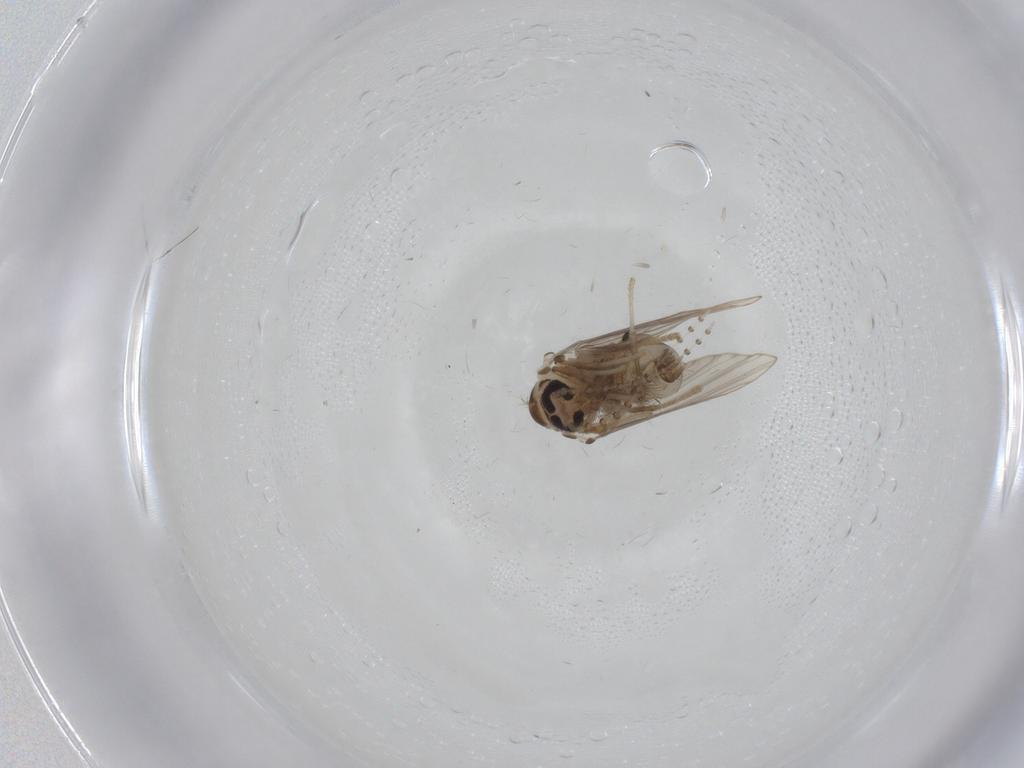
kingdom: Animalia
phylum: Arthropoda
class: Insecta
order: Diptera
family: Psychodidae
